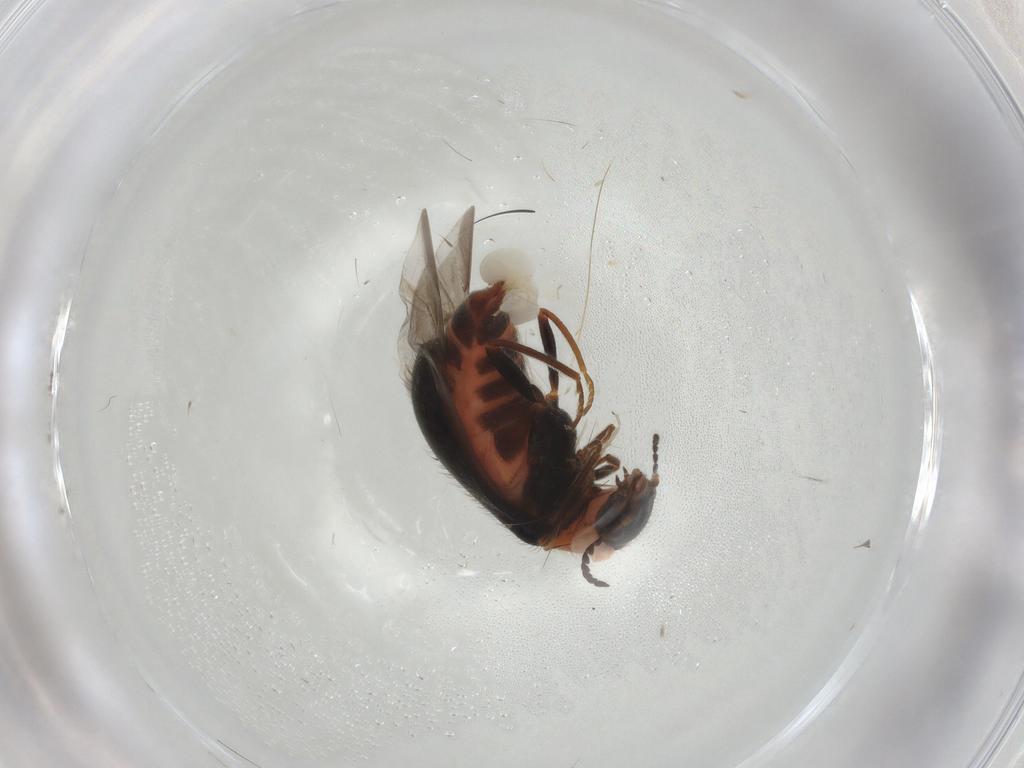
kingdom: Animalia
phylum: Arthropoda
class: Insecta
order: Coleoptera
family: Melyridae
